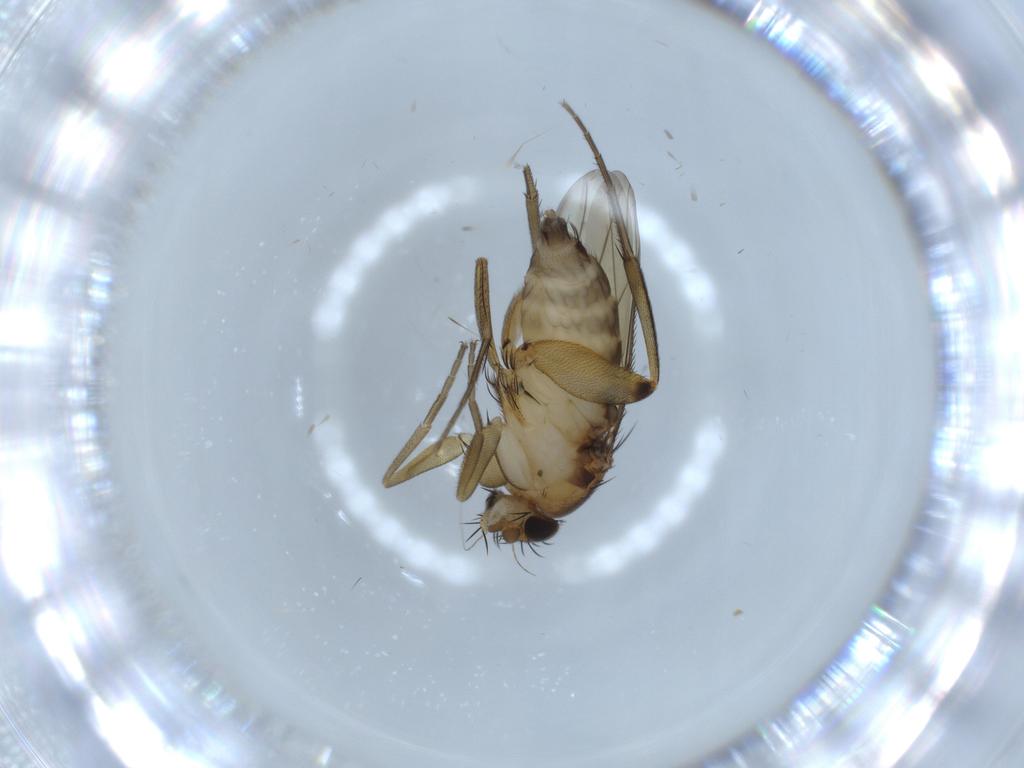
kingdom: Animalia
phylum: Arthropoda
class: Insecta
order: Diptera
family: Phoridae
